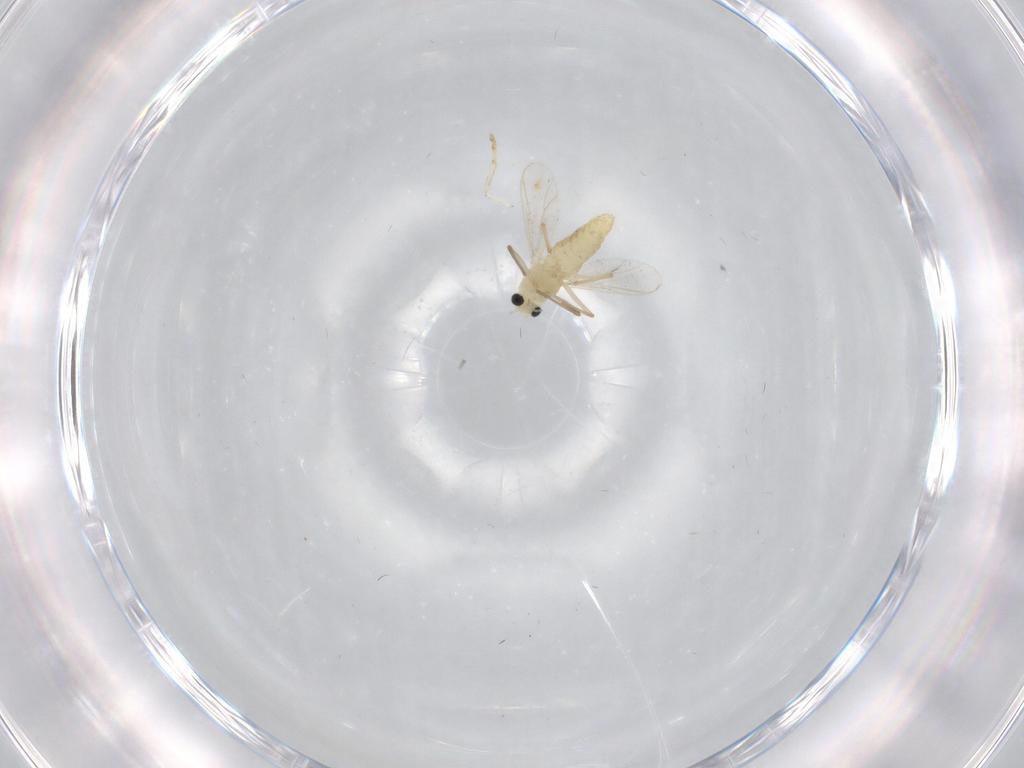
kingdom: Animalia
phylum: Arthropoda
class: Insecta
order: Diptera
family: Chironomidae
